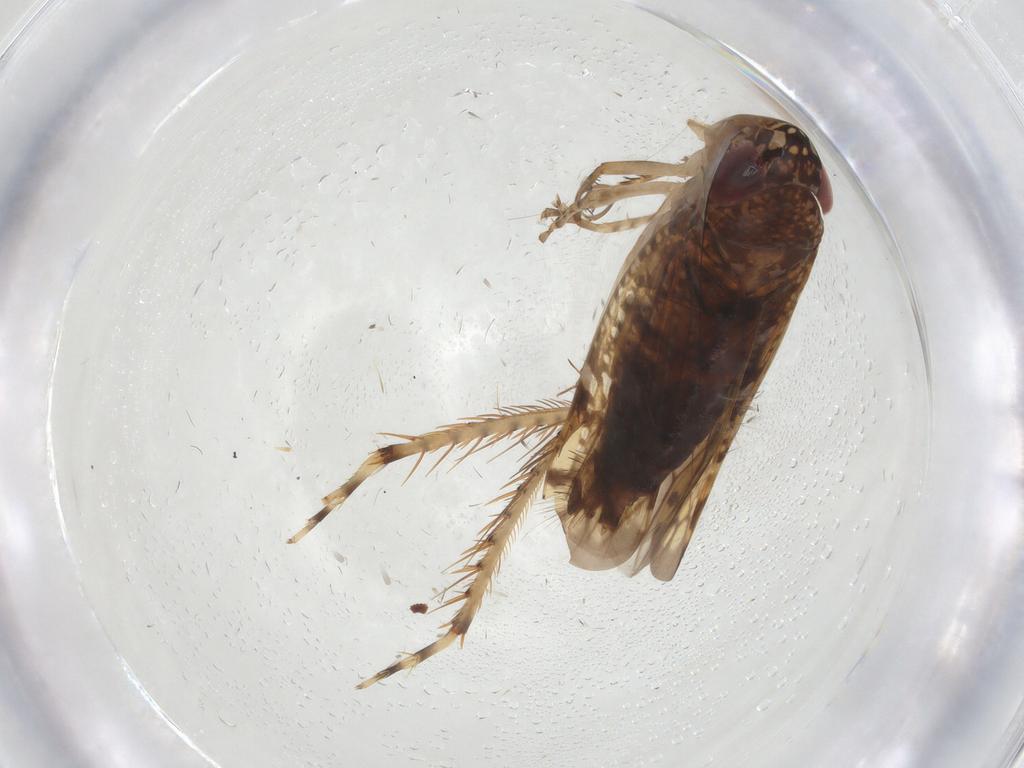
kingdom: Animalia
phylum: Arthropoda
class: Insecta
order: Hemiptera
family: Cicadellidae
